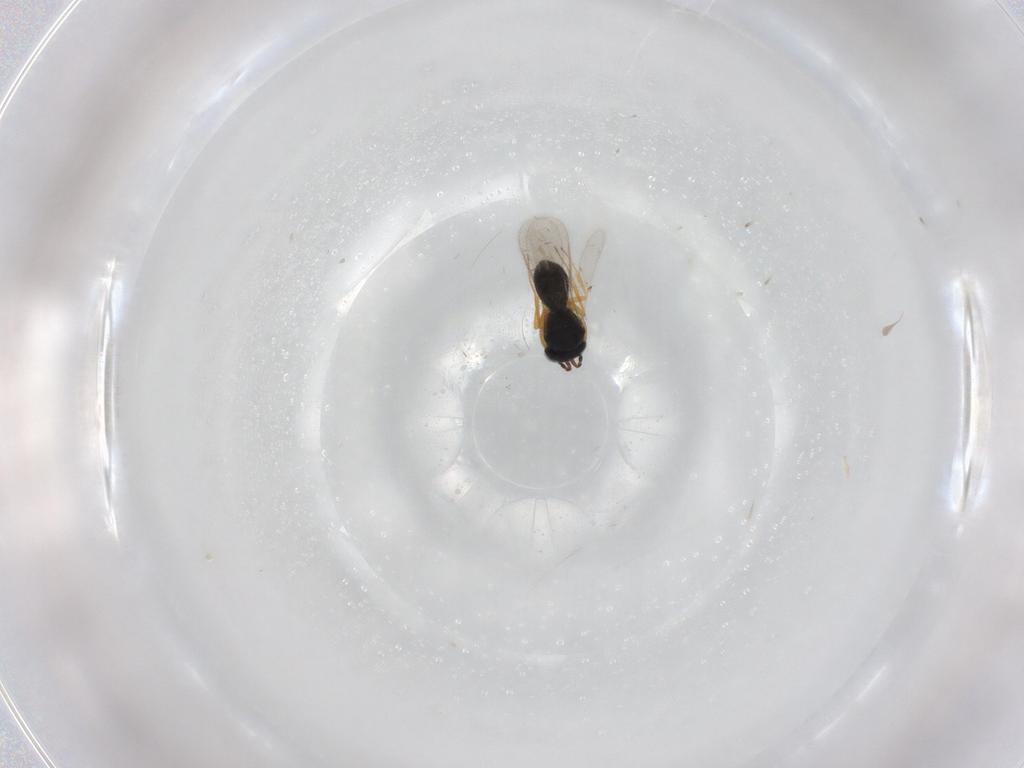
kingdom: Animalia
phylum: Arthropoda
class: Insecta
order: Hymenoptera
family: Scelionidae
